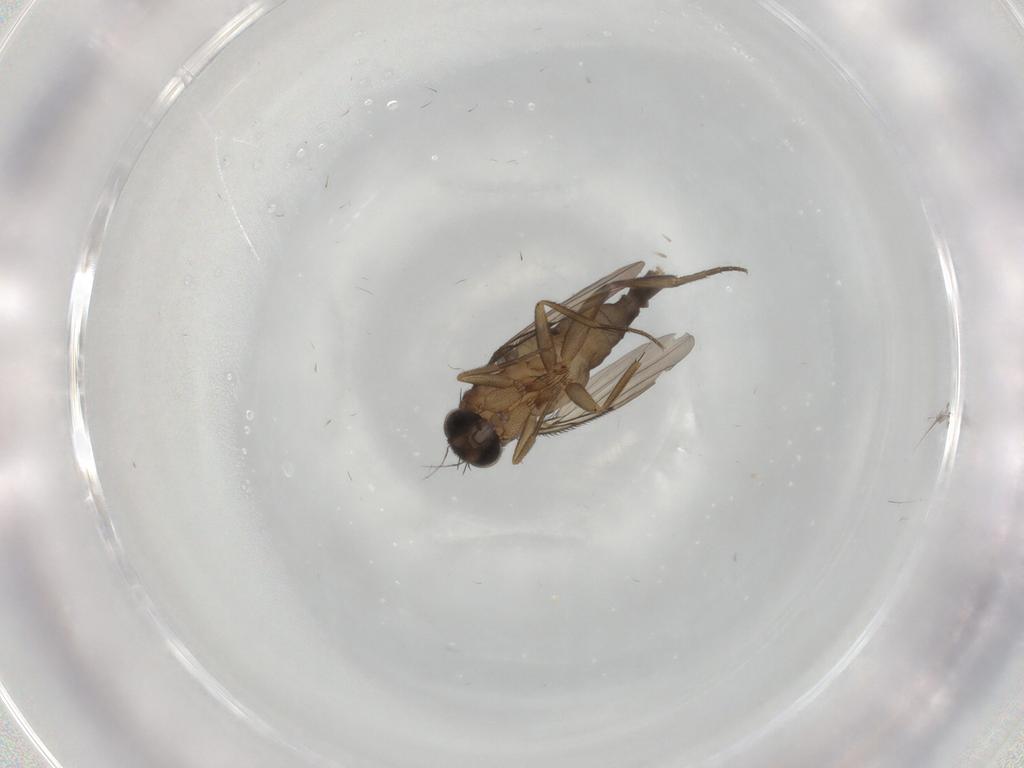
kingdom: Animalia
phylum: Arthropoda
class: Insecta
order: Diptera
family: Phoridae
